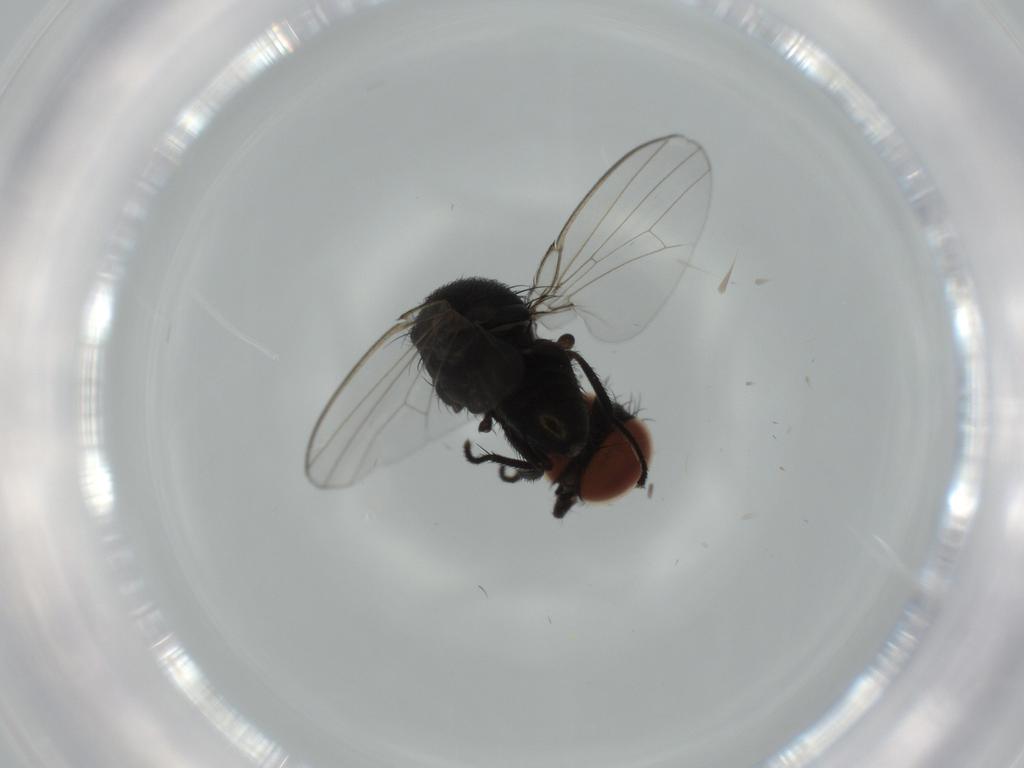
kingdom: Animalia
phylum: Arthropoda
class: Insecta
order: Diptera
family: Milichiidae
